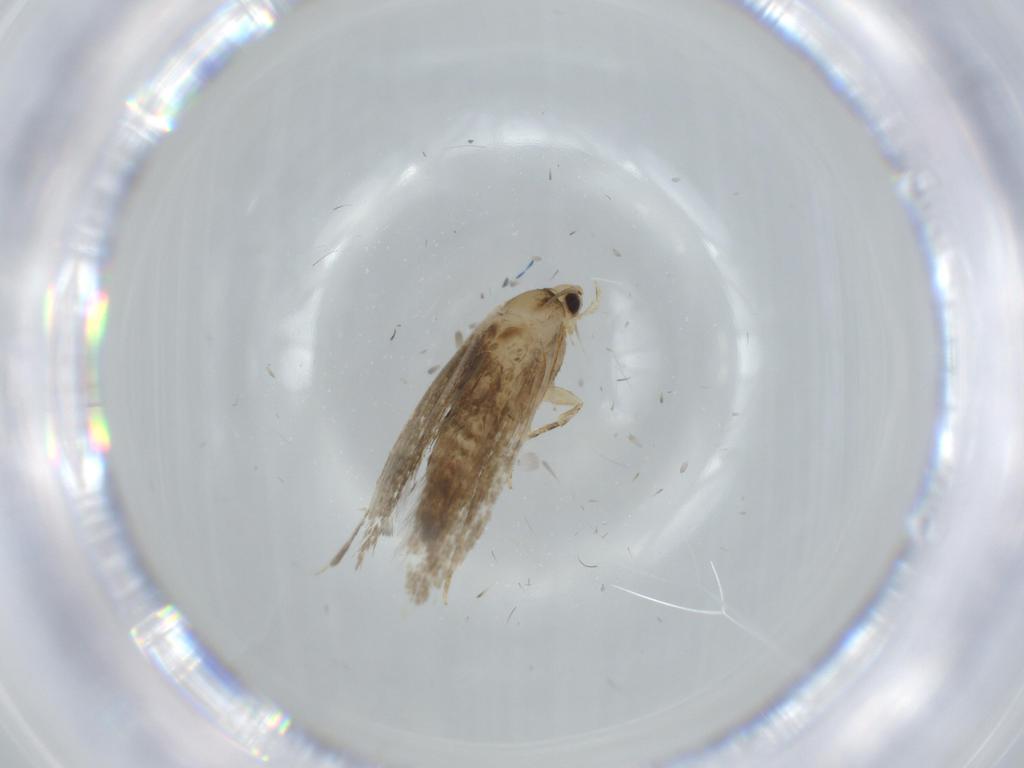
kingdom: Animalia
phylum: Arthropoda
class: Insecta
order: Lepidoptera
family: Tineidae
